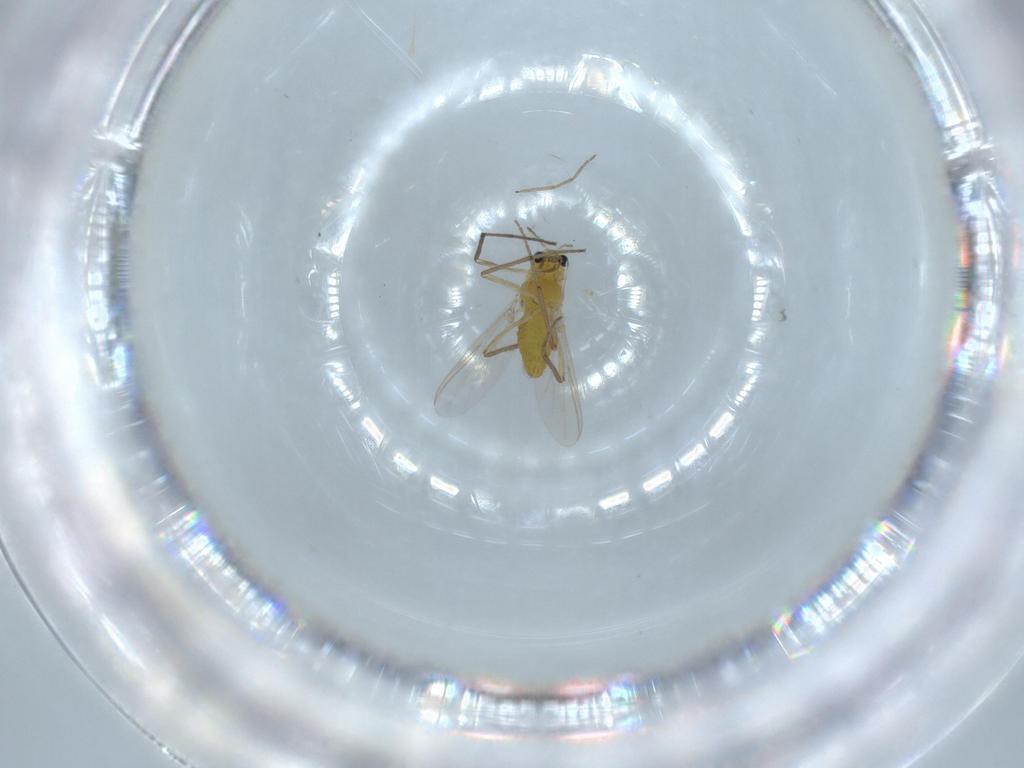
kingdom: Animalia
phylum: Arthropoda
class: Insecta
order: Diptera
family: Chironomidae
